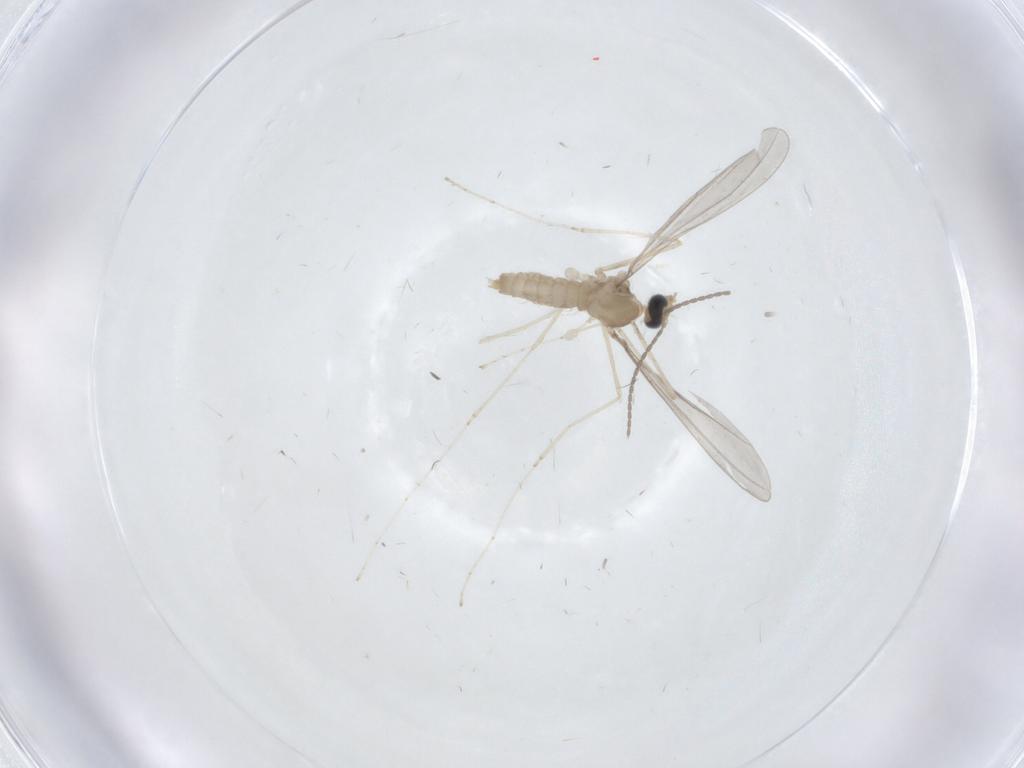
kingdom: Animalia
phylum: Arthropoda
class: Insecta
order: Diptera
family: Cecidomyiidae
